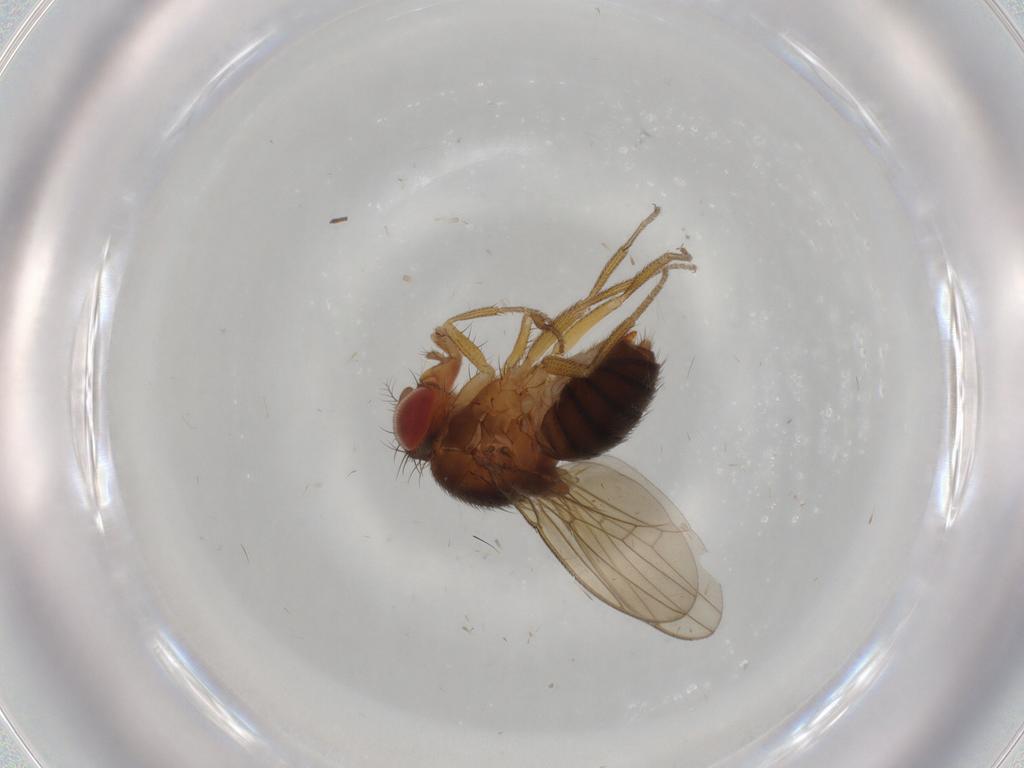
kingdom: Animalia
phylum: Arthropoda
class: Insecta
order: Diptera
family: Drosophilidae
